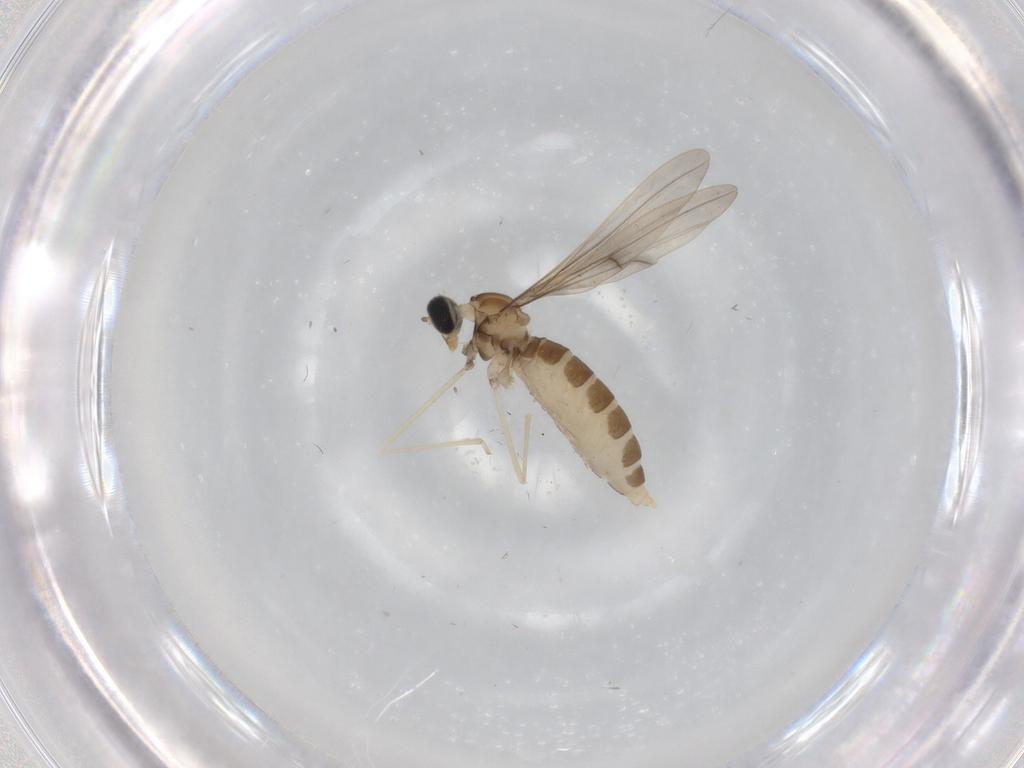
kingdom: Animalia
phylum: Arthropoda
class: Insecta
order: Diptera
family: Cecidomyiidae
